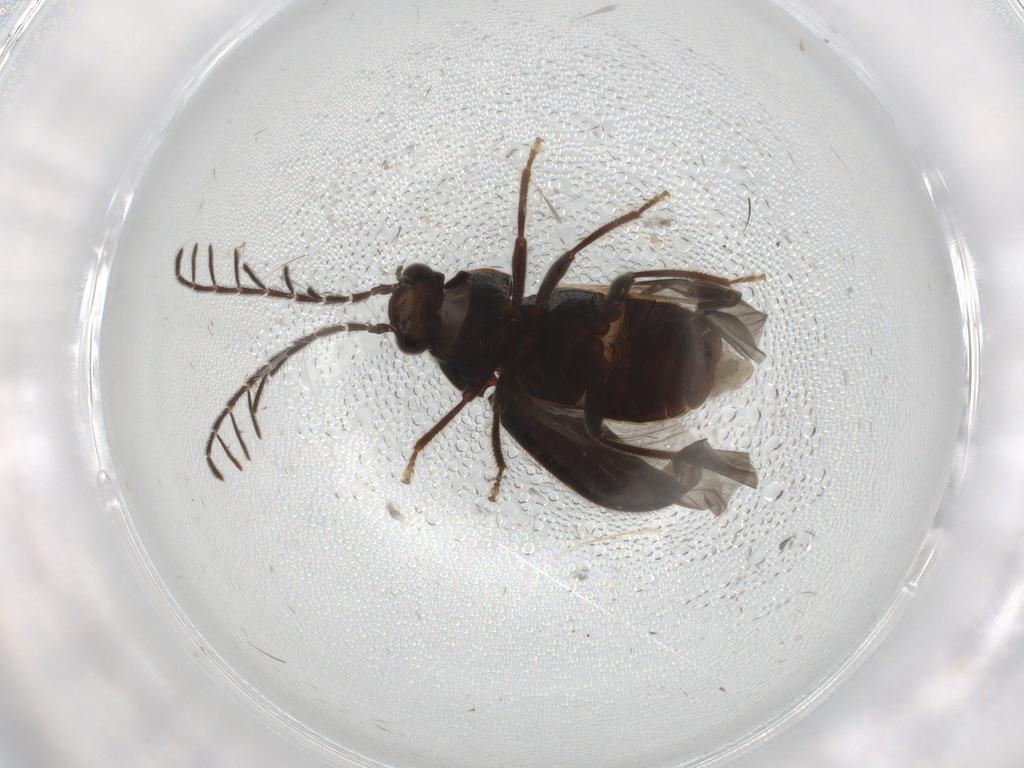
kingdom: Animalia
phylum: Arthropoda
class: Insecta
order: Coleoptera
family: Ptilodactylidae
